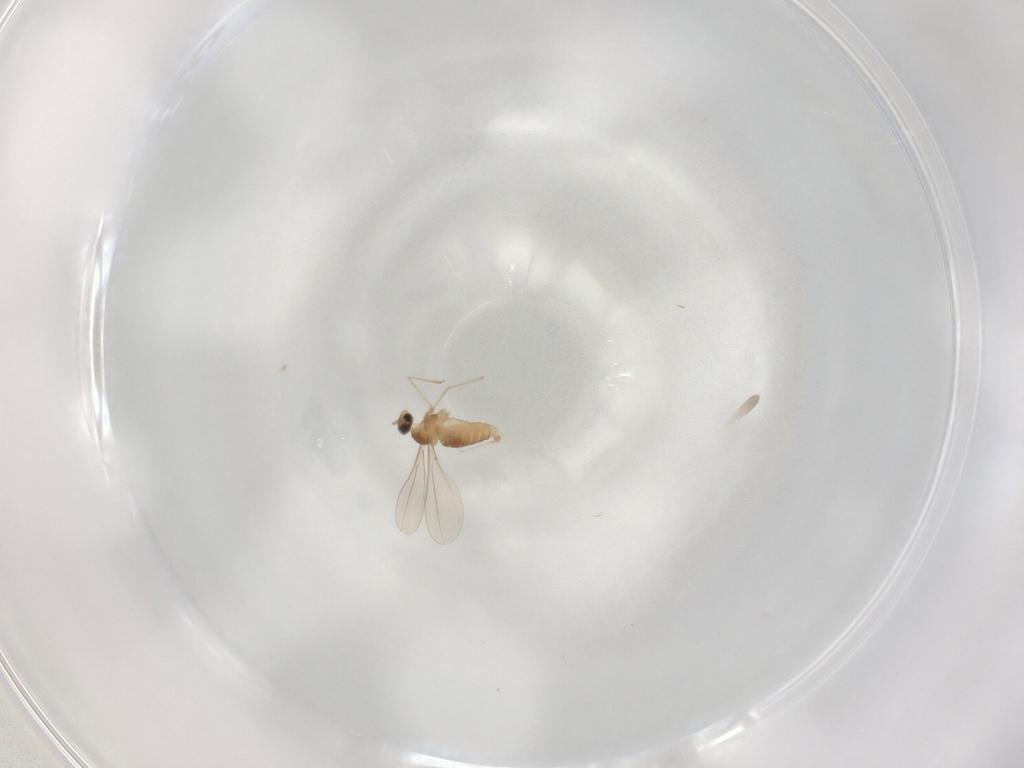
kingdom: Animalia
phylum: Arthropoda
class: Insecta
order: Diptera
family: Cecidomyiidae
